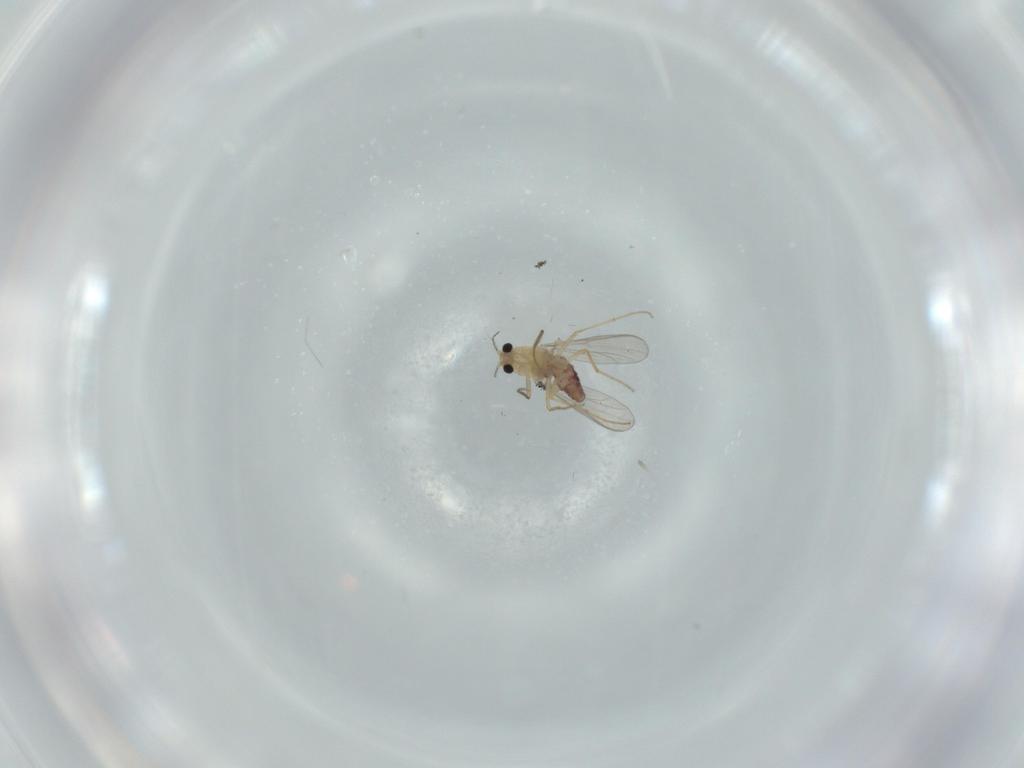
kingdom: Animalia
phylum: Arthropoda
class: Insecta
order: Diptera
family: Chironomidae
